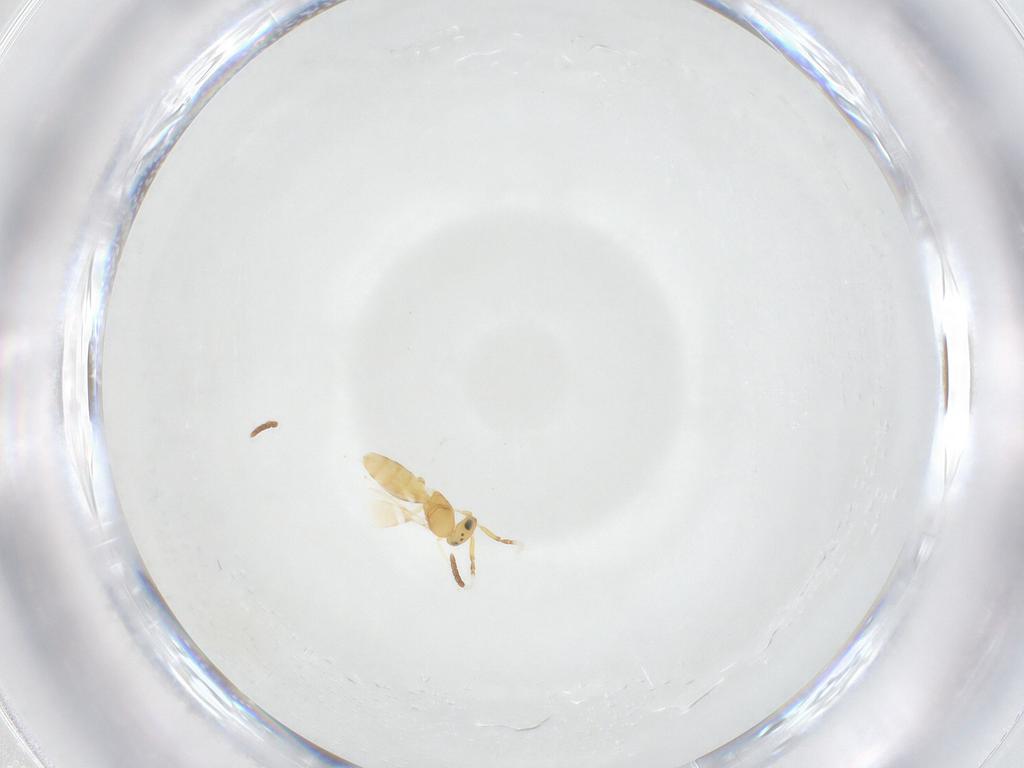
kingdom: Animalia
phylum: Arthropoda
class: Insecta
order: Hymenoptera
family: Scelionidae
